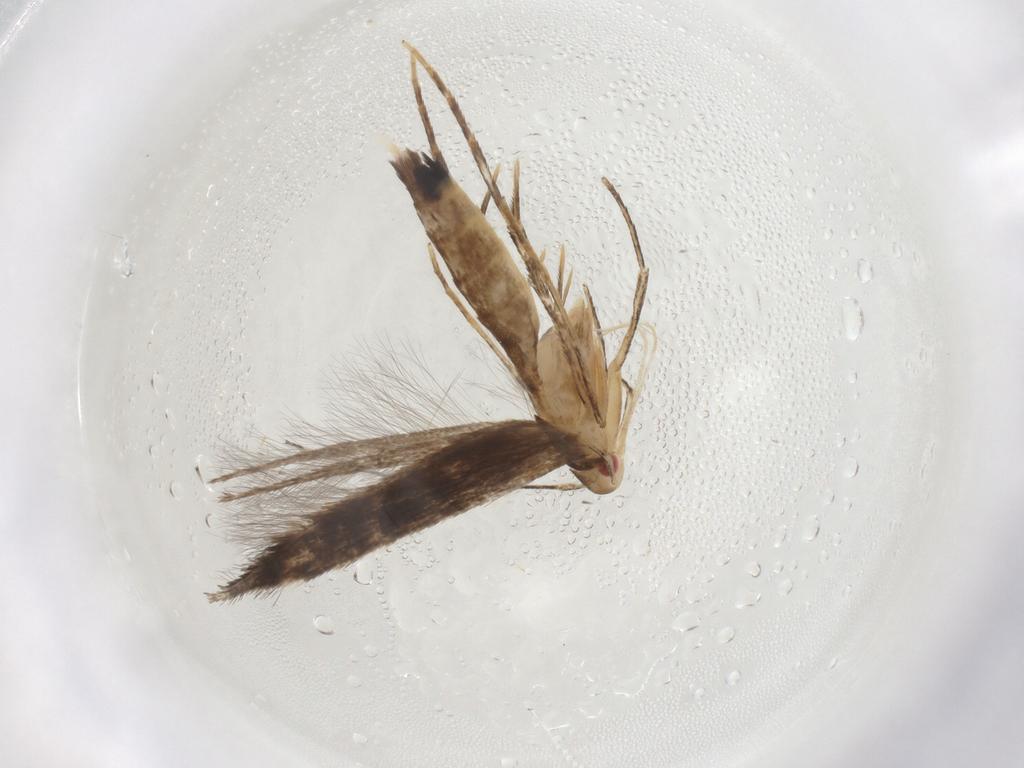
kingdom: Animalia
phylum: Arthropoda
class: Insecta
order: Lepidoptera
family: Cosmopterigidae
